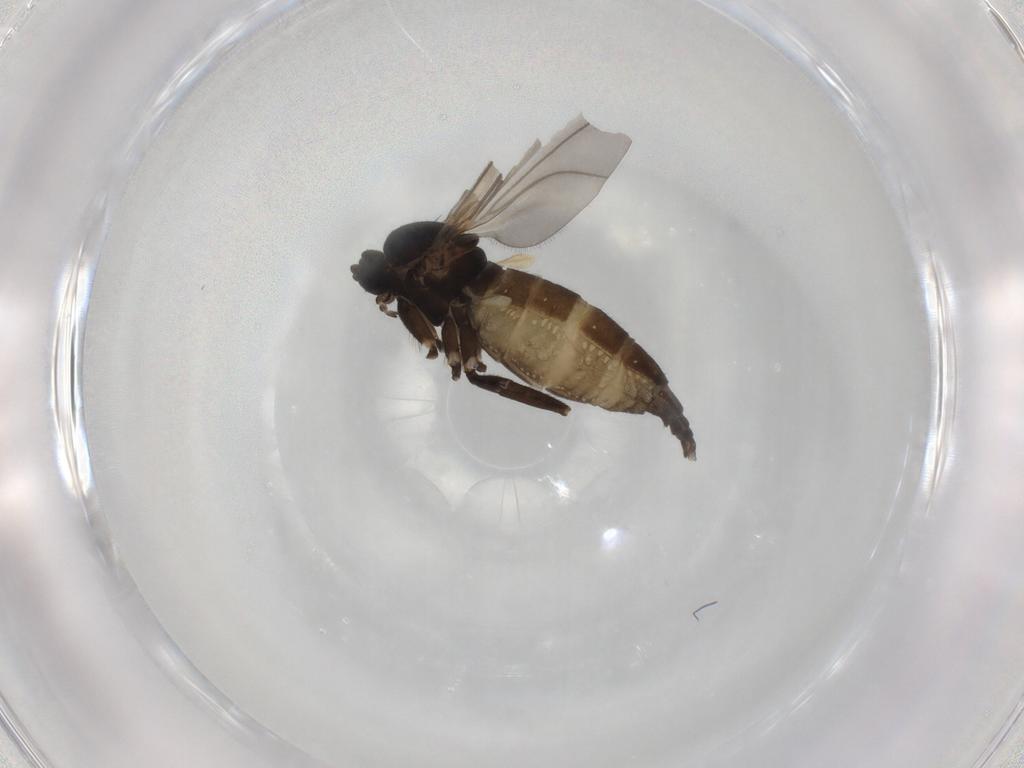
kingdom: Animalia
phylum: Arthropoda
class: Insecta
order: Diptera
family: Sciaridae
